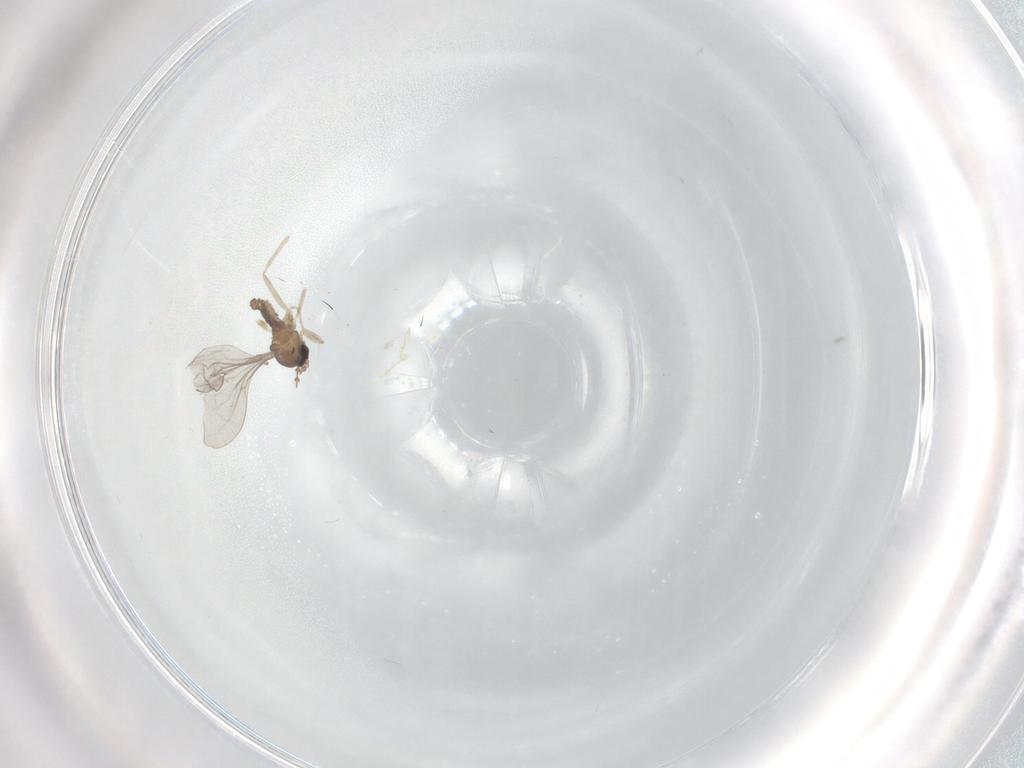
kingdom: Animalia
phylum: Arthropoda
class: Insecta
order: Diptera
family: Cecidomyiidae
